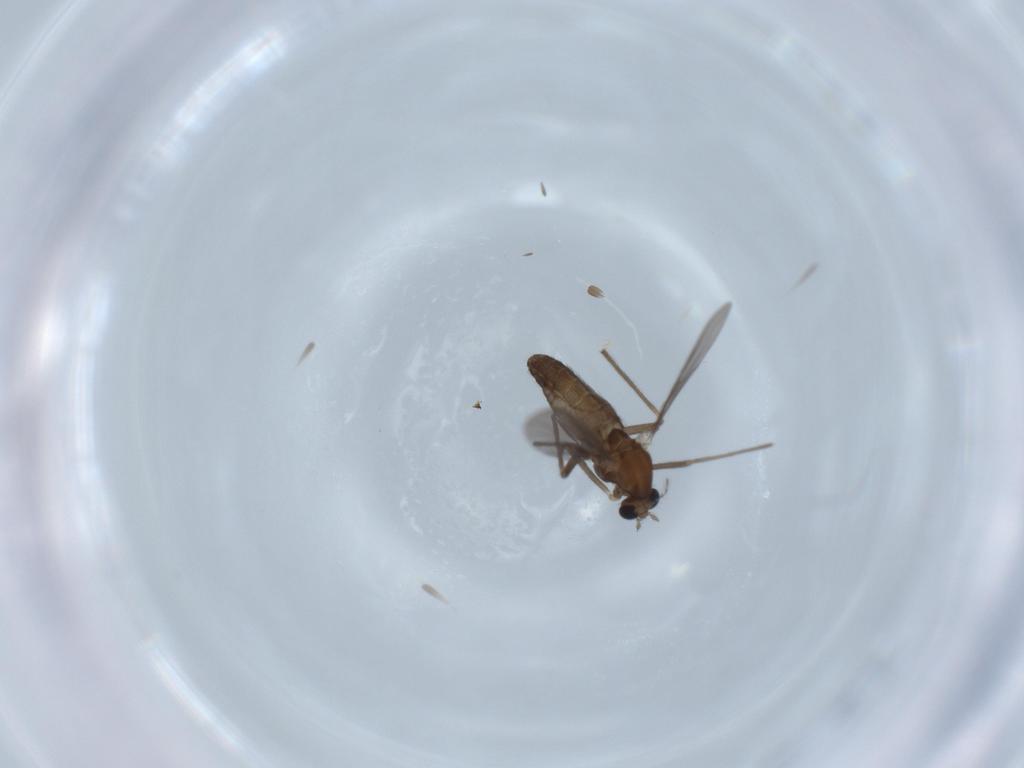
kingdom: Animalia
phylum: Arthropoda
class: Insecta
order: Diptera
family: Chironomidae
